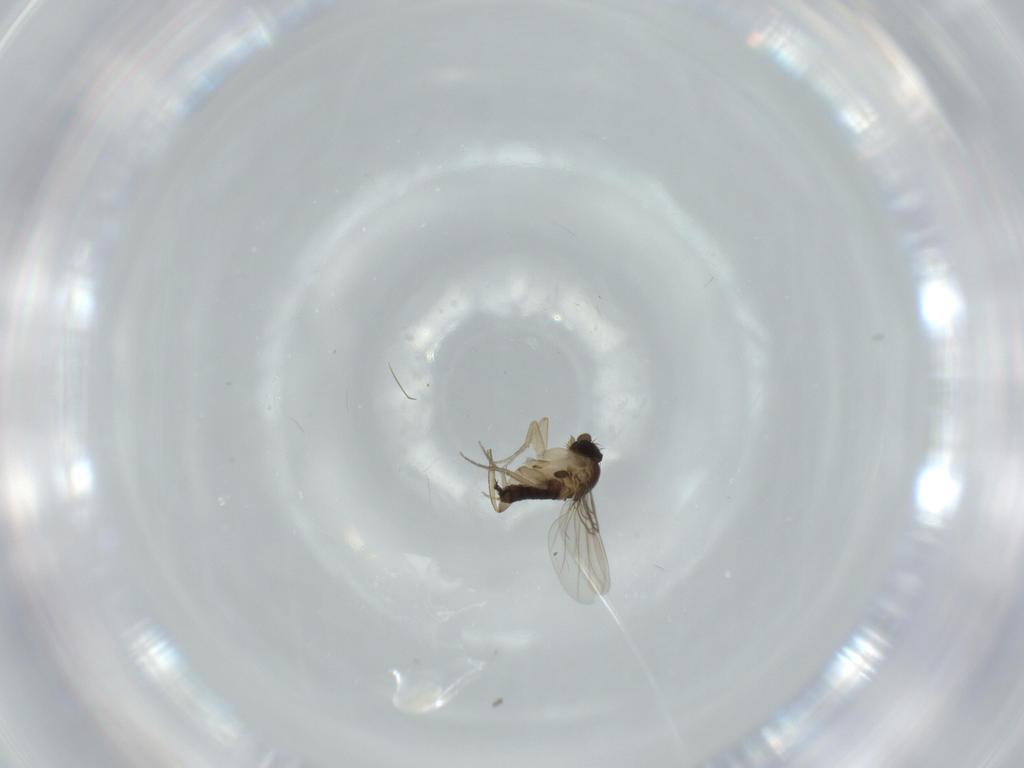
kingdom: Animalia
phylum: Arthropoda
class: Insecta
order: Diptera
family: Phoridae
